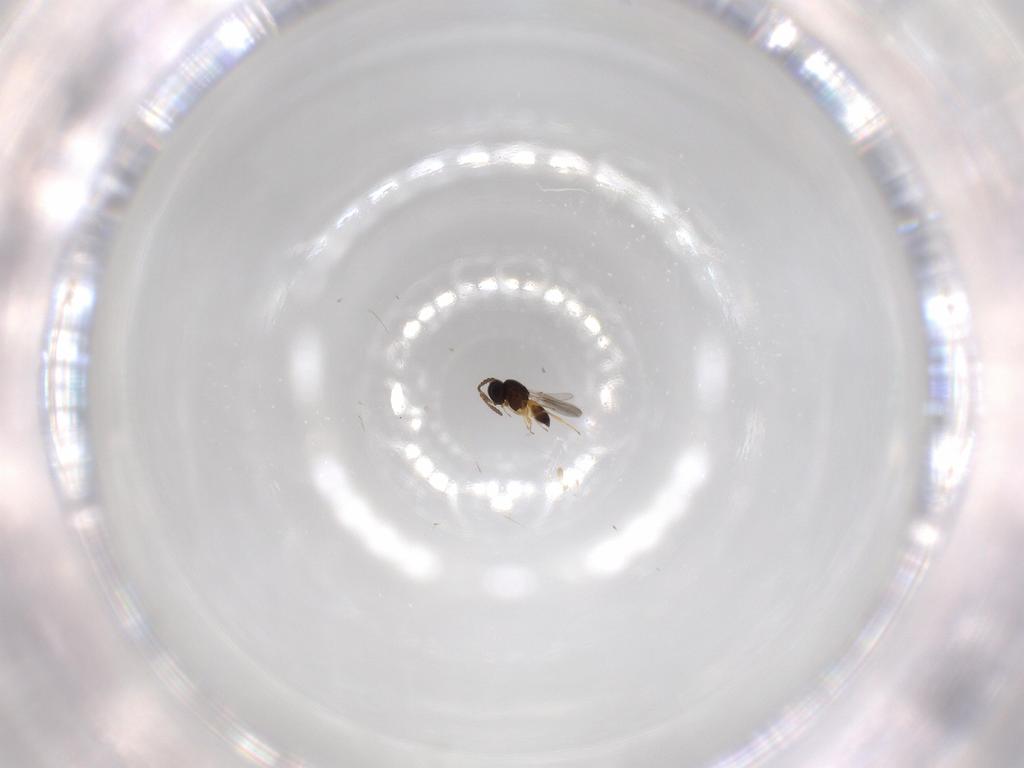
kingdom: Animalia
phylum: Arthropoda
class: Insecta
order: Hymenoptera
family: Scelionidae
